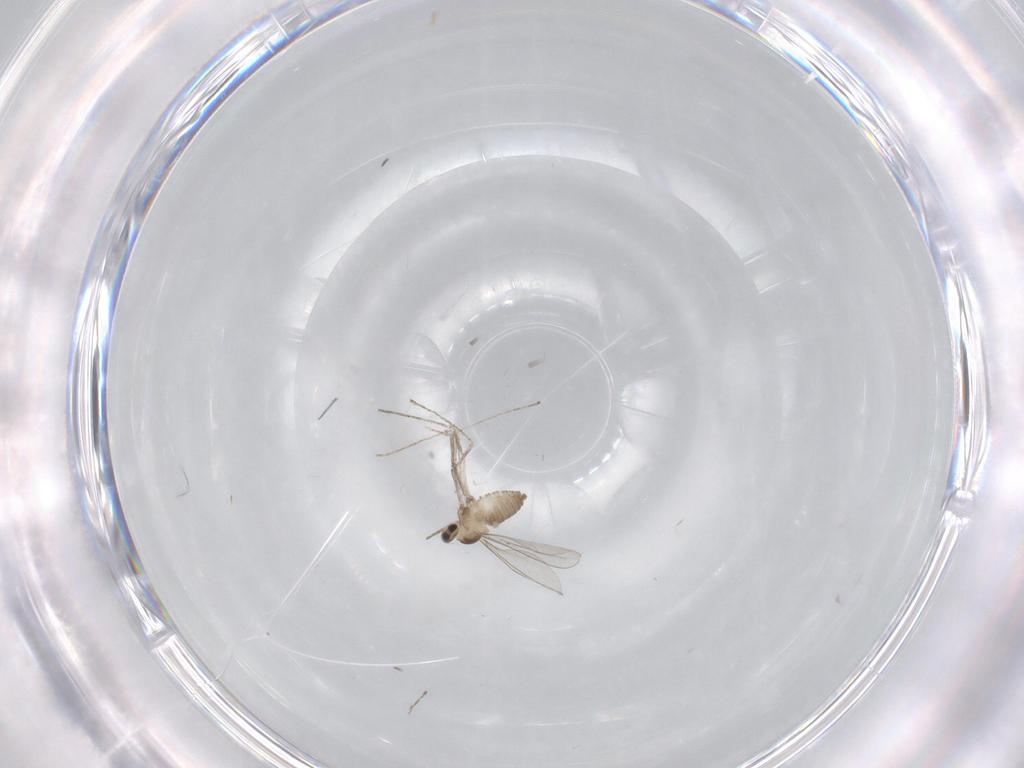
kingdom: Animalia
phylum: Arthropoda
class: Insecta
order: Diptera
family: Cecidomyiidae
